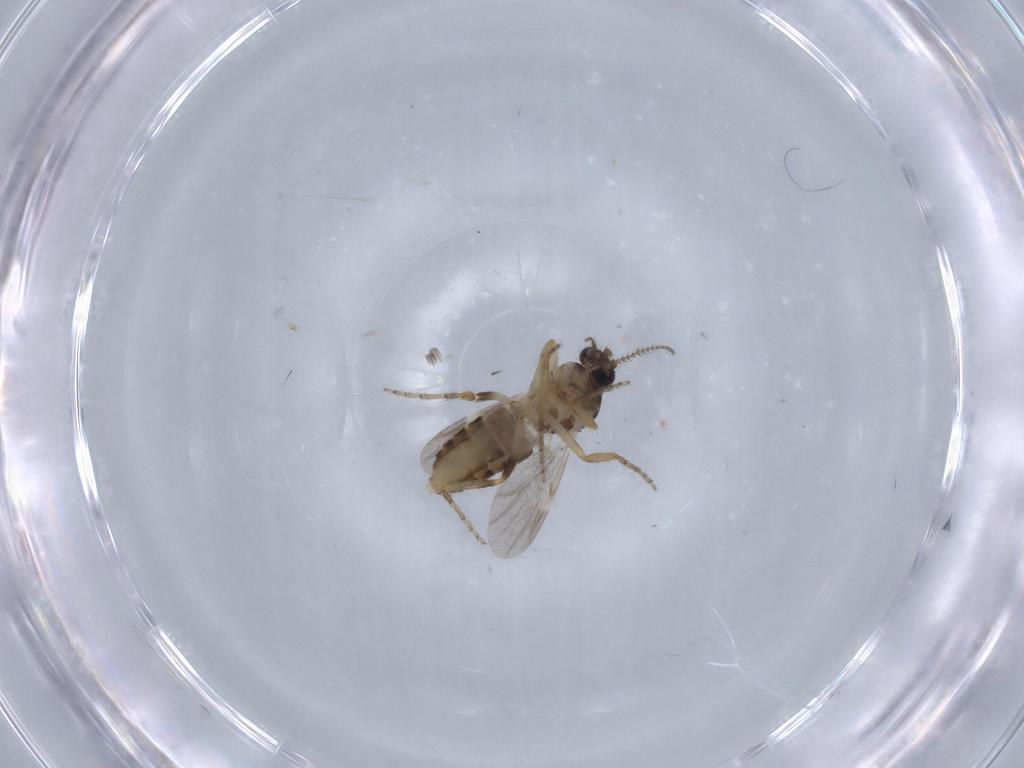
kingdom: Animalia
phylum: Arthropoda
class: Insecta
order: Diptera
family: Ceratopogonidae
